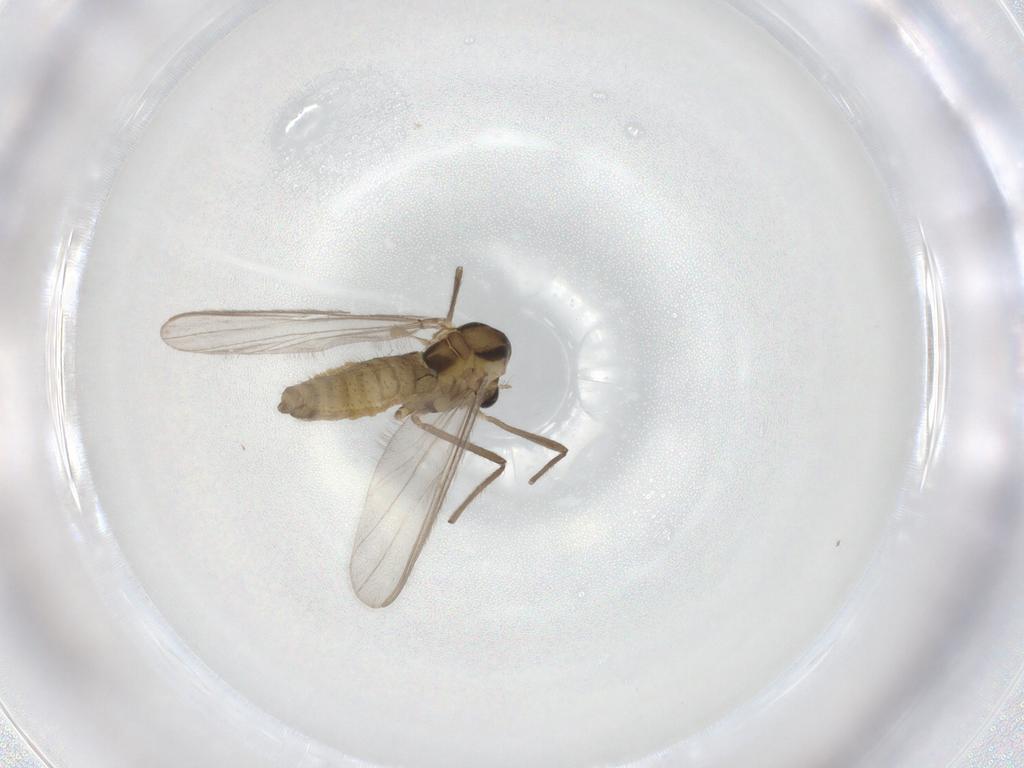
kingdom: Animalia
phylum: Arthropoda
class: Insecta
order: Diptera
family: Chironomidae
